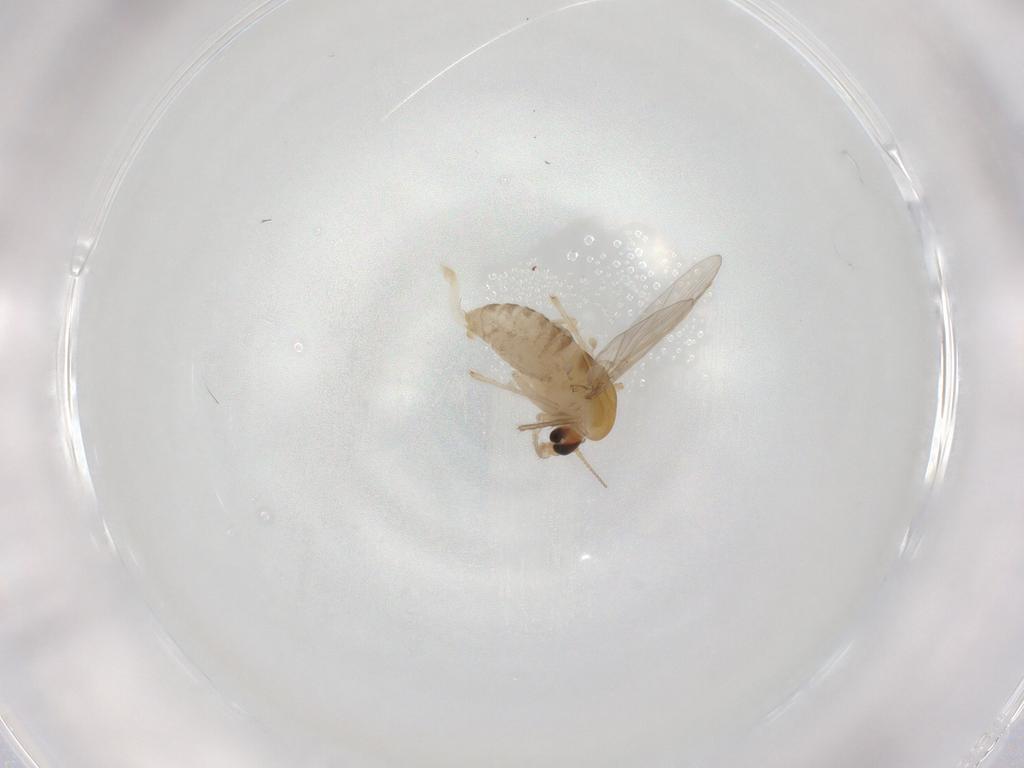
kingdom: Animalia
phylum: Arthropoda
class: Insecta
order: Diptera
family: Chironomidae
